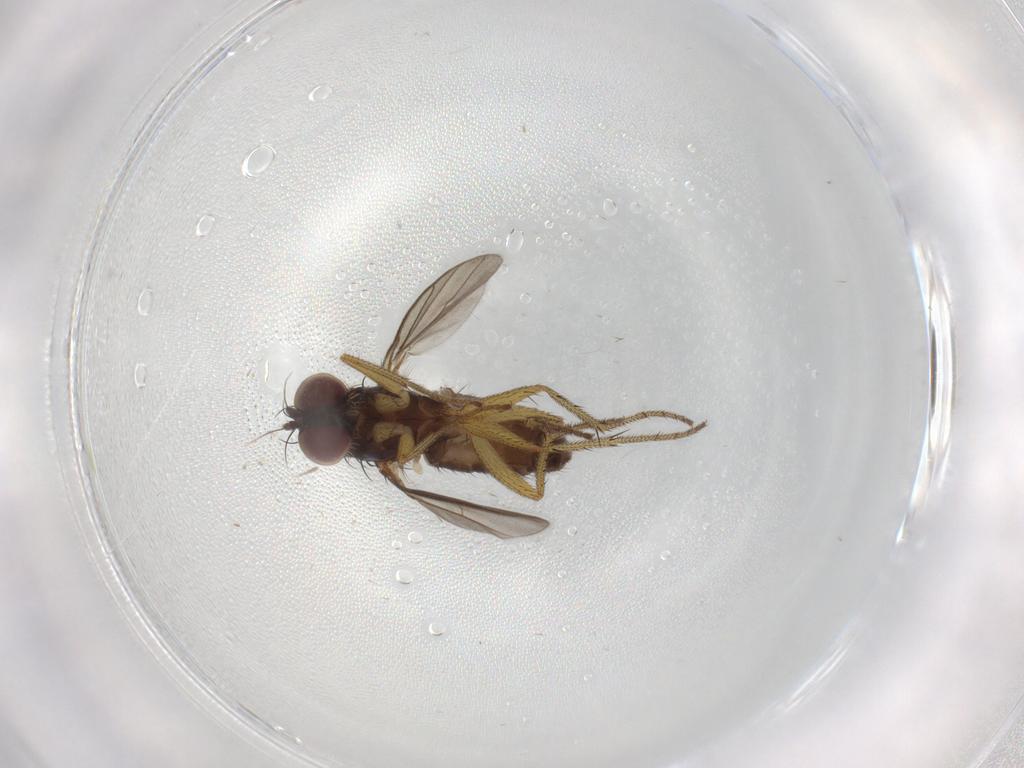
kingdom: Animalia
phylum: Arthropoda
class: Insecta
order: Diptera
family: Dolichopodidae
